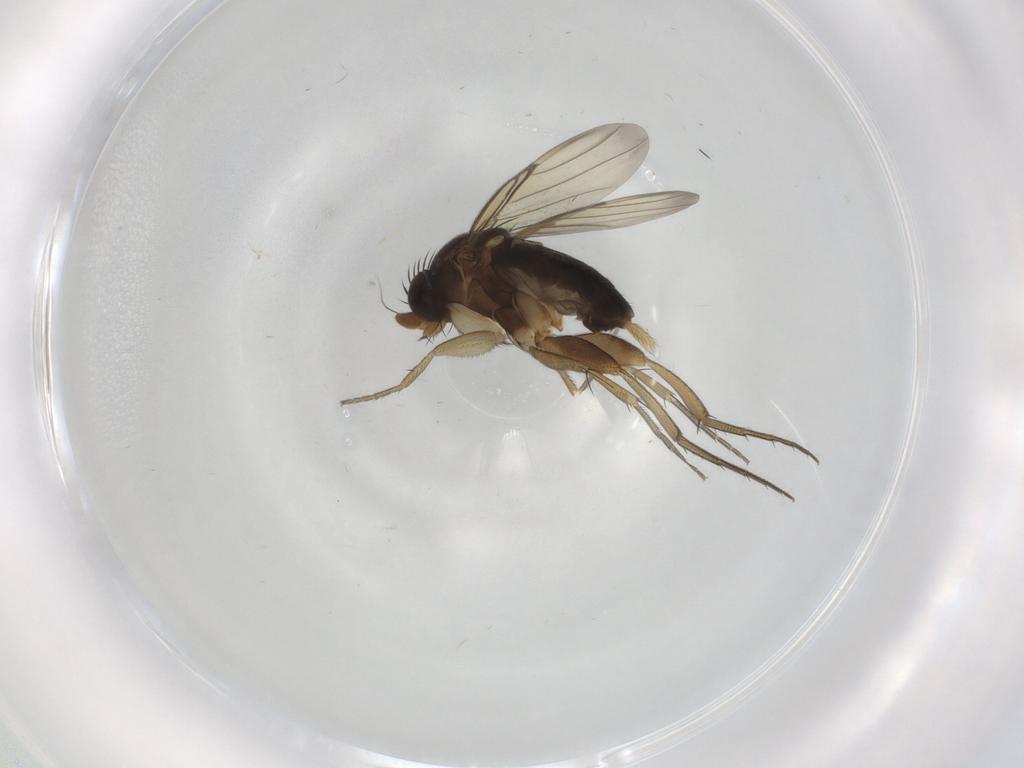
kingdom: Animalia
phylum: Arthropoda
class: Insecta
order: Diptera
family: Phoridae
